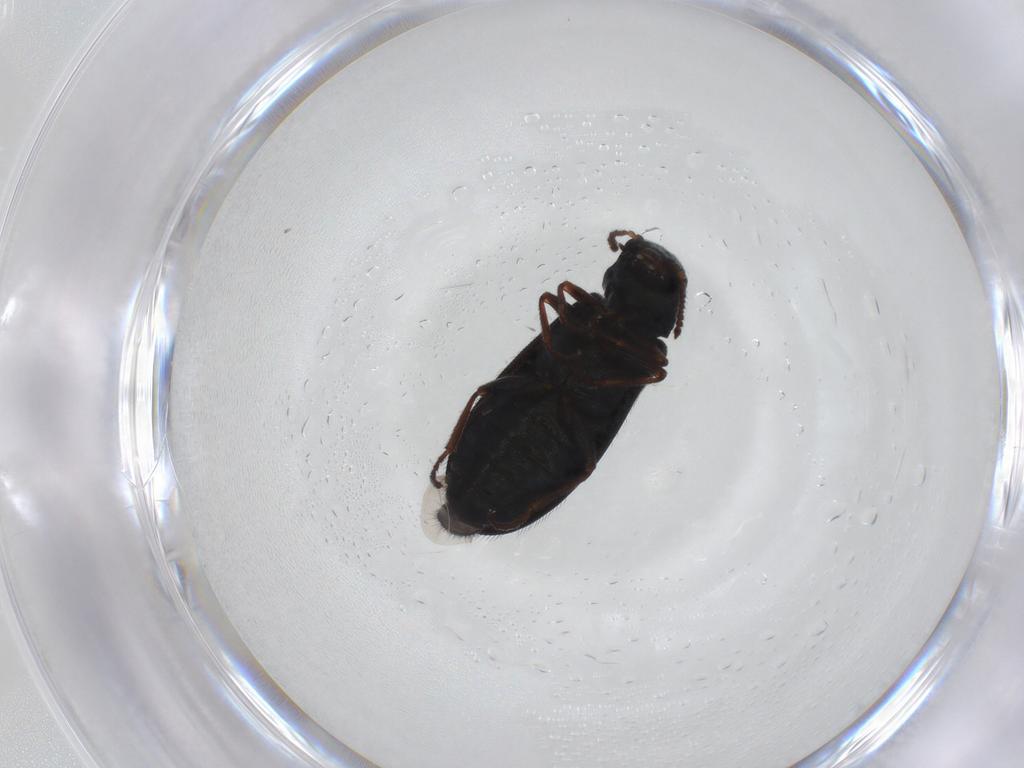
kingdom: Animalia
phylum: Arthropoda
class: Insecta
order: Coleoptera
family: Melyridae
